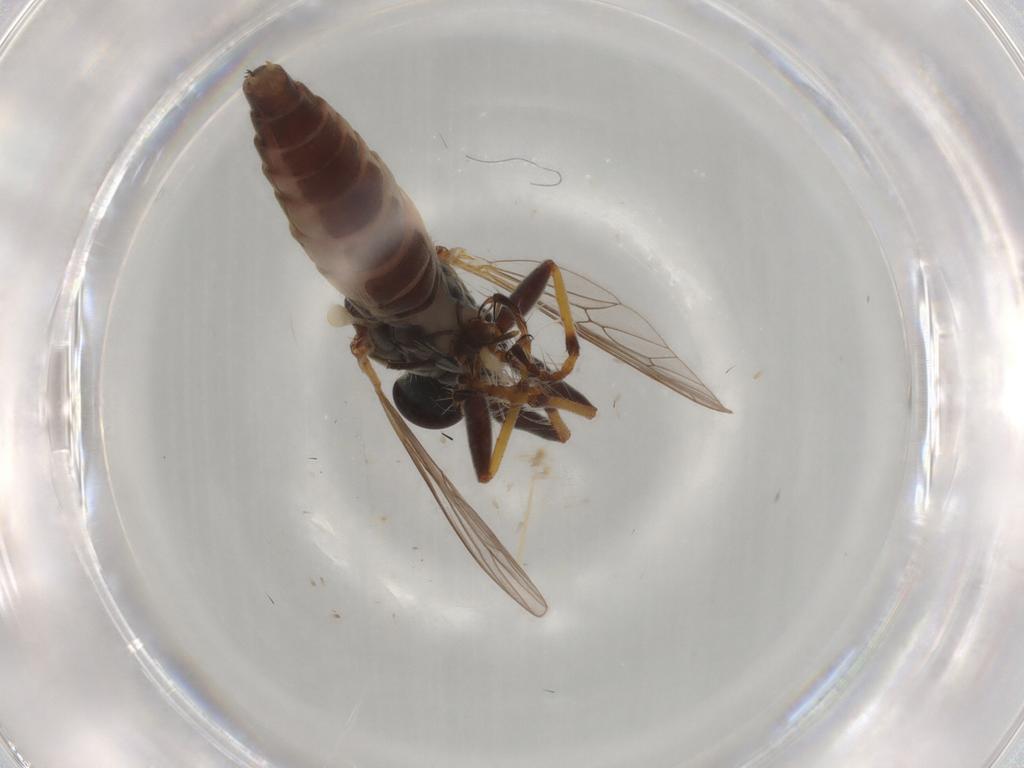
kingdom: Animalia
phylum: Arthropoda
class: Insecta
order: Diptera
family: Dolichopodidae
